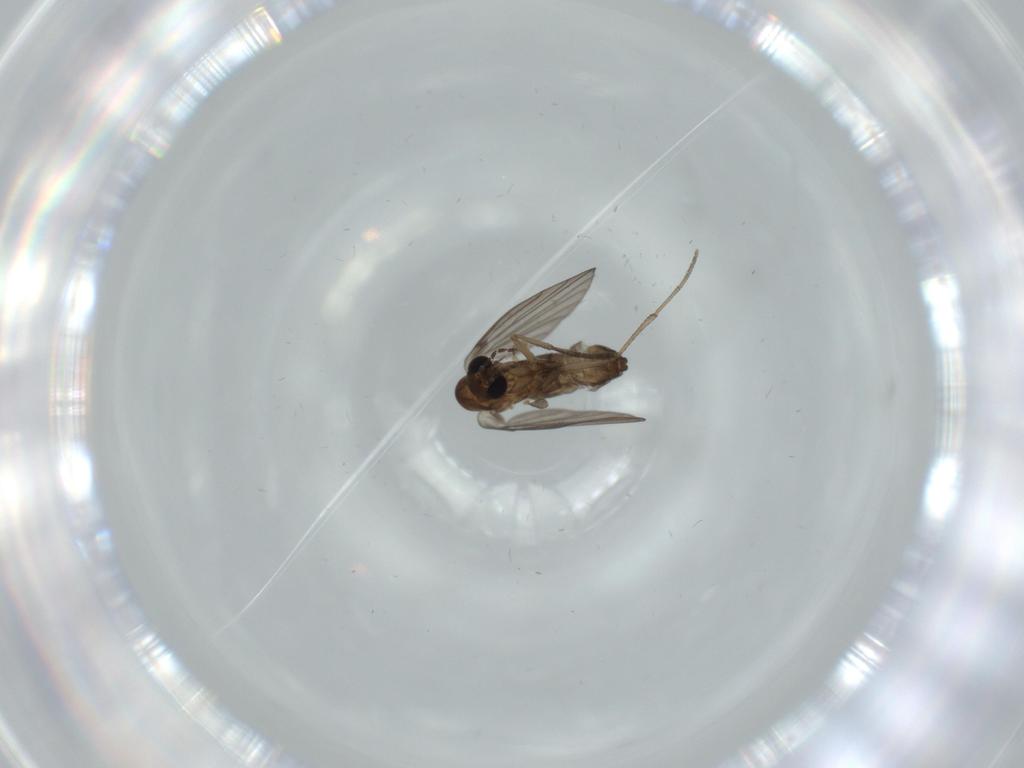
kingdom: Animalia
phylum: Arthropoda
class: Insecta
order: Diptera
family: Psychodidae
